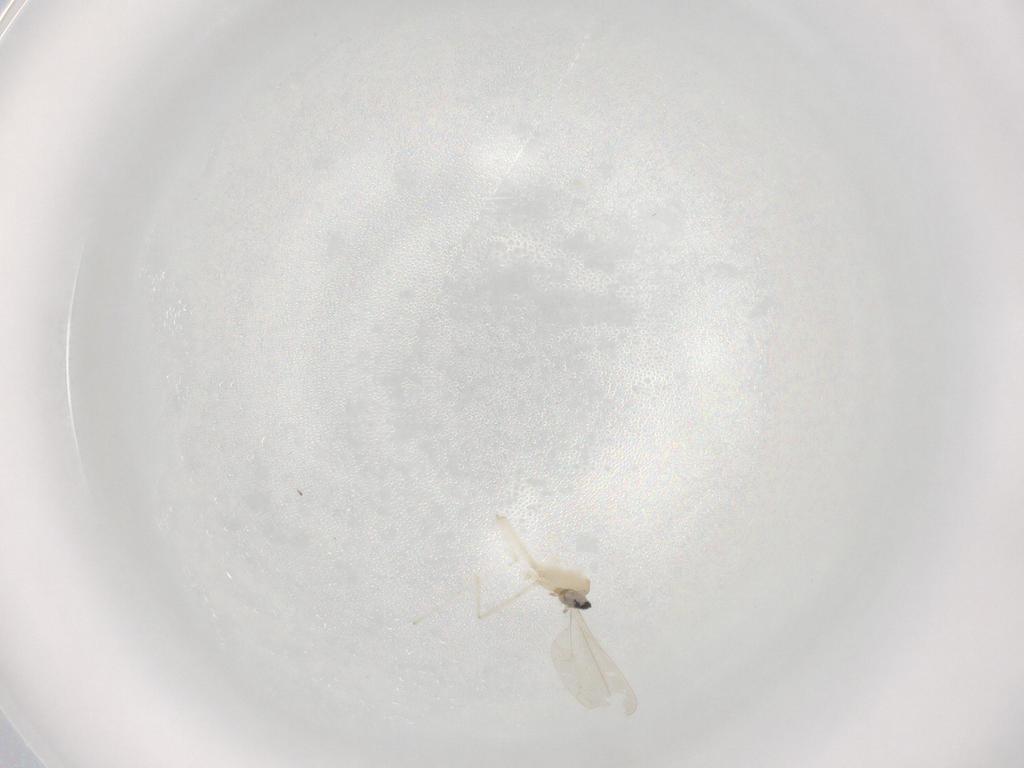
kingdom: Animalia
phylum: Arthropoda
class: Insecta
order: Diptera
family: Cecidomyiidae
